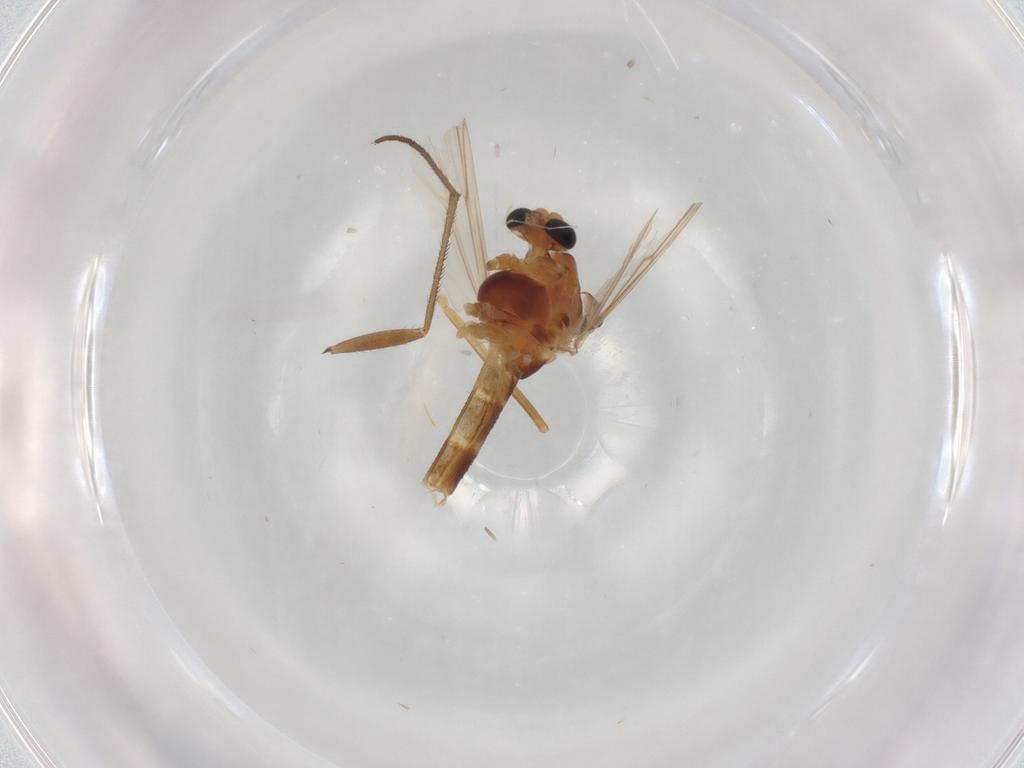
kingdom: Animalia
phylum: Arthropoda
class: Insecta
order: Diptera
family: Chironomidae
